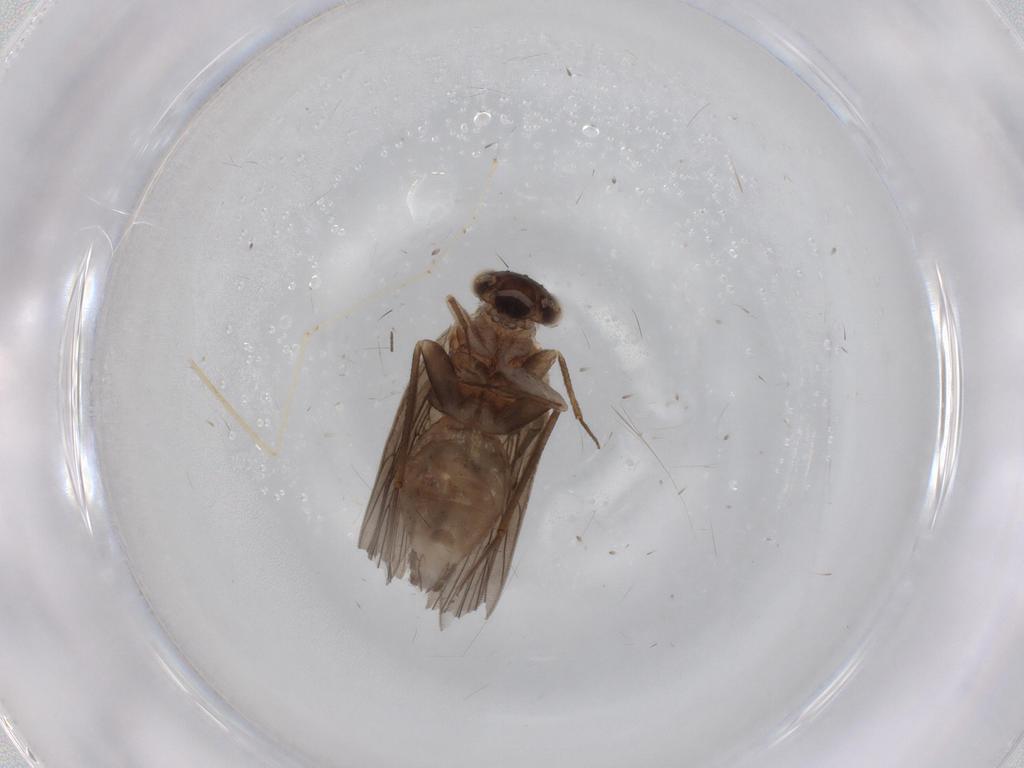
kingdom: Animalia
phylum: Arthropoda
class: Insecta
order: Psocodea
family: Lepidopsocidae
